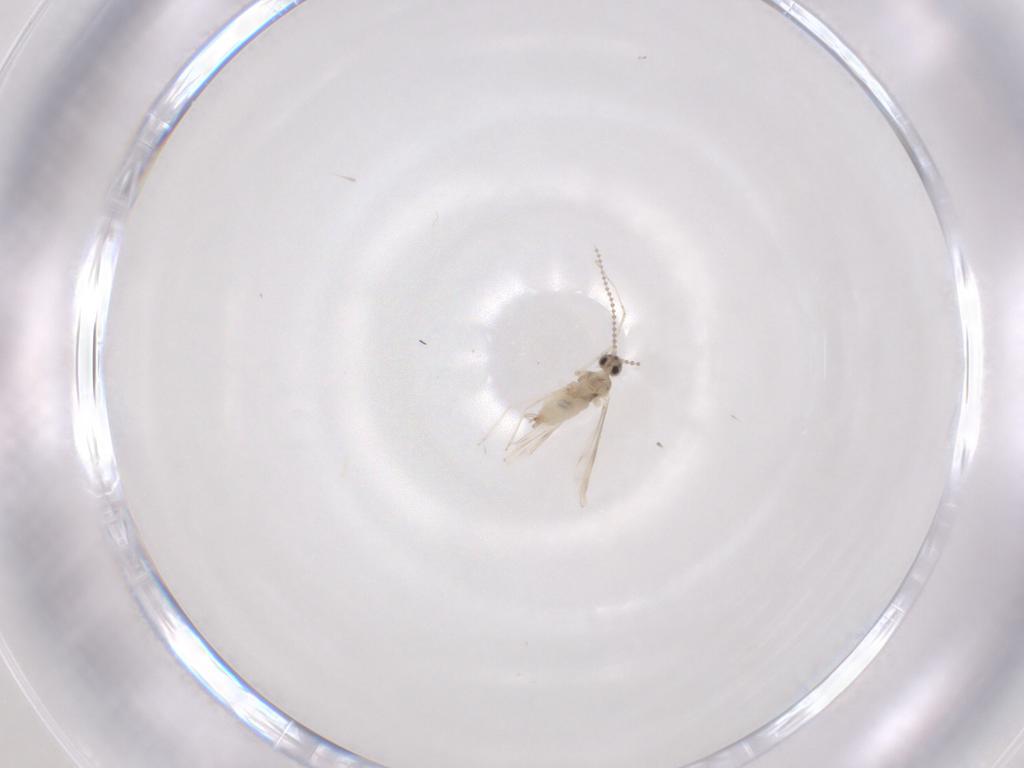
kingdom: Animalia
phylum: Arthropoda
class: Insecta
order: Diptera
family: Cecidomyiidae
